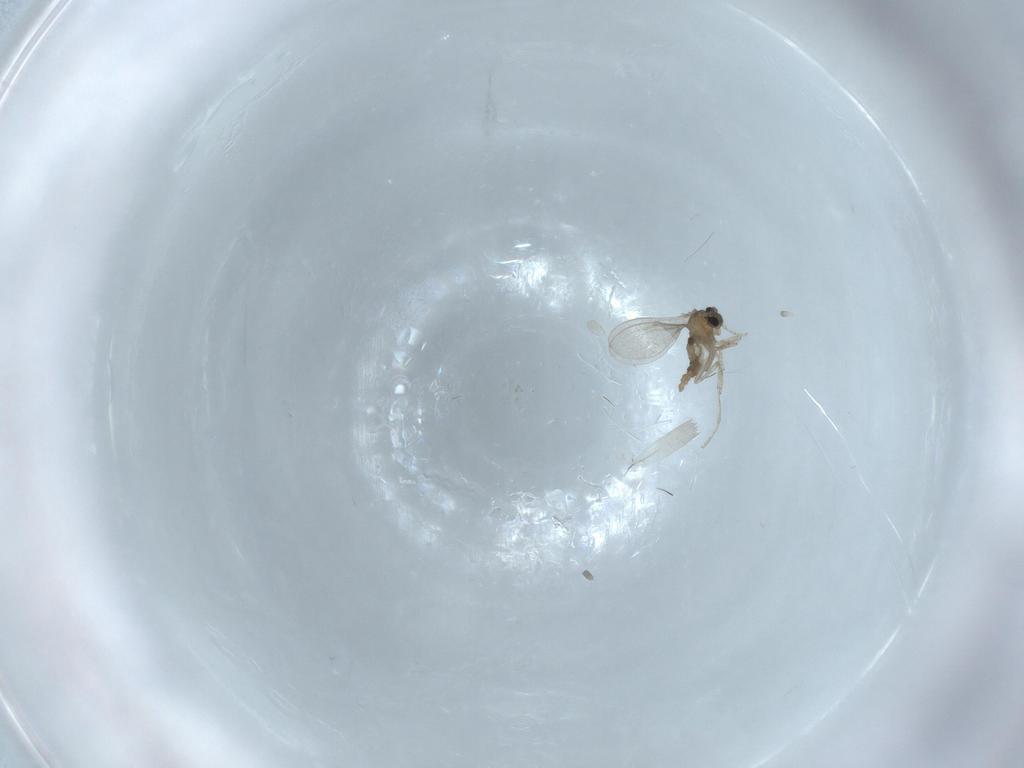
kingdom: Animalia
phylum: Arthropoda
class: Insecta
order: Diptera
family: Cecidomyiidae
